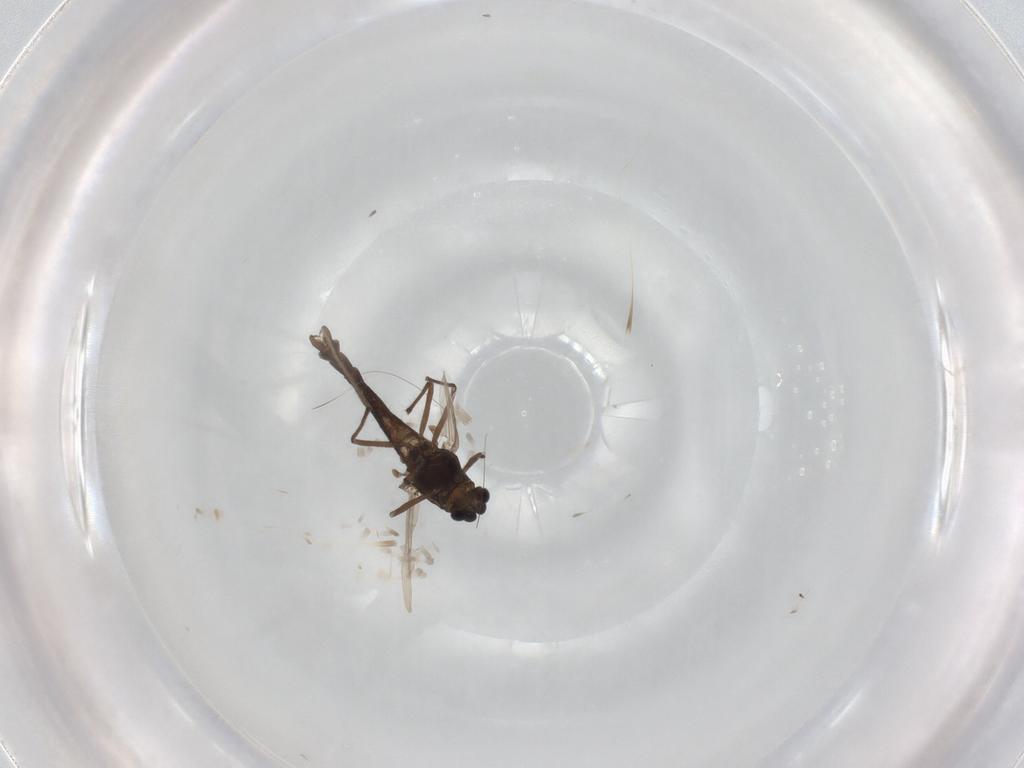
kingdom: Animalia
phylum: Arthropoda
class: Insecta
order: Diptera
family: Chironomidae
